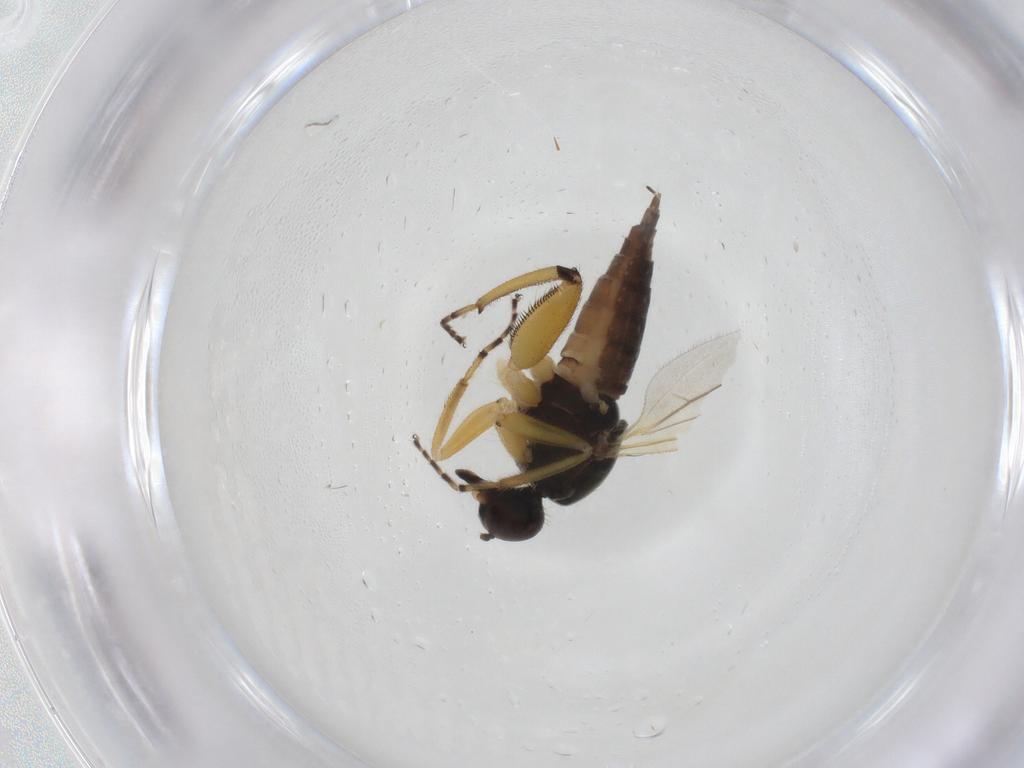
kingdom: Animalia
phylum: Arthropoda
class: Insecta
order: Diptera
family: Hybotidae
